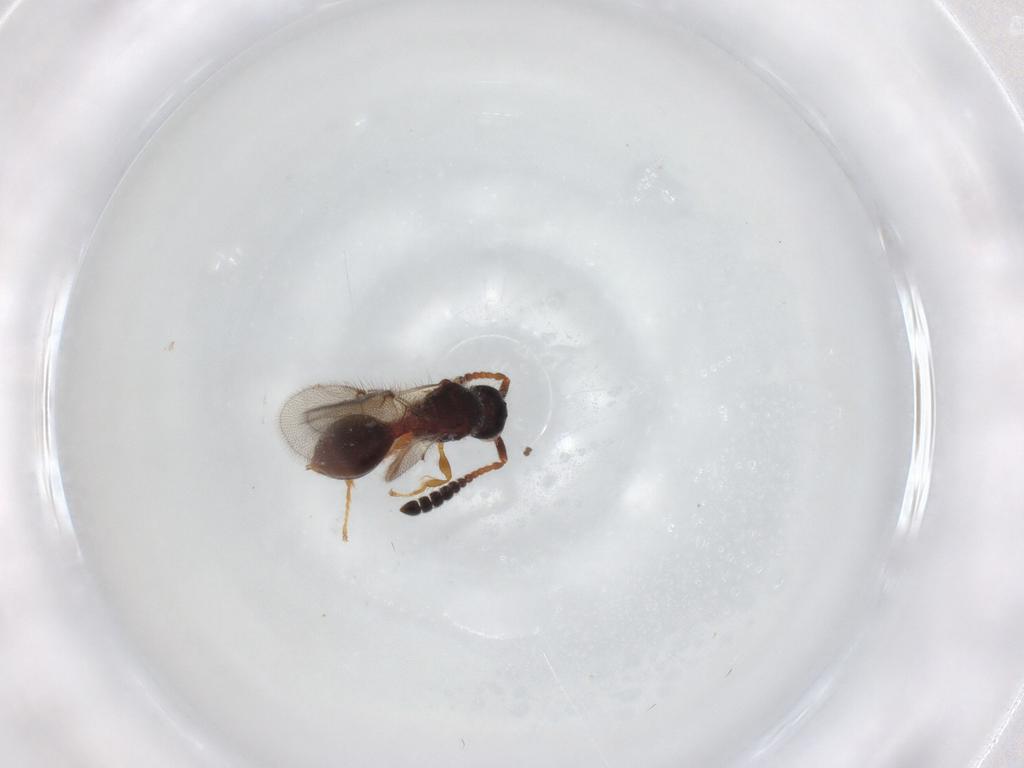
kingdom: Animalia
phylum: Arthropoda
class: Insecta
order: Hymenoptera
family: Diapriidae
